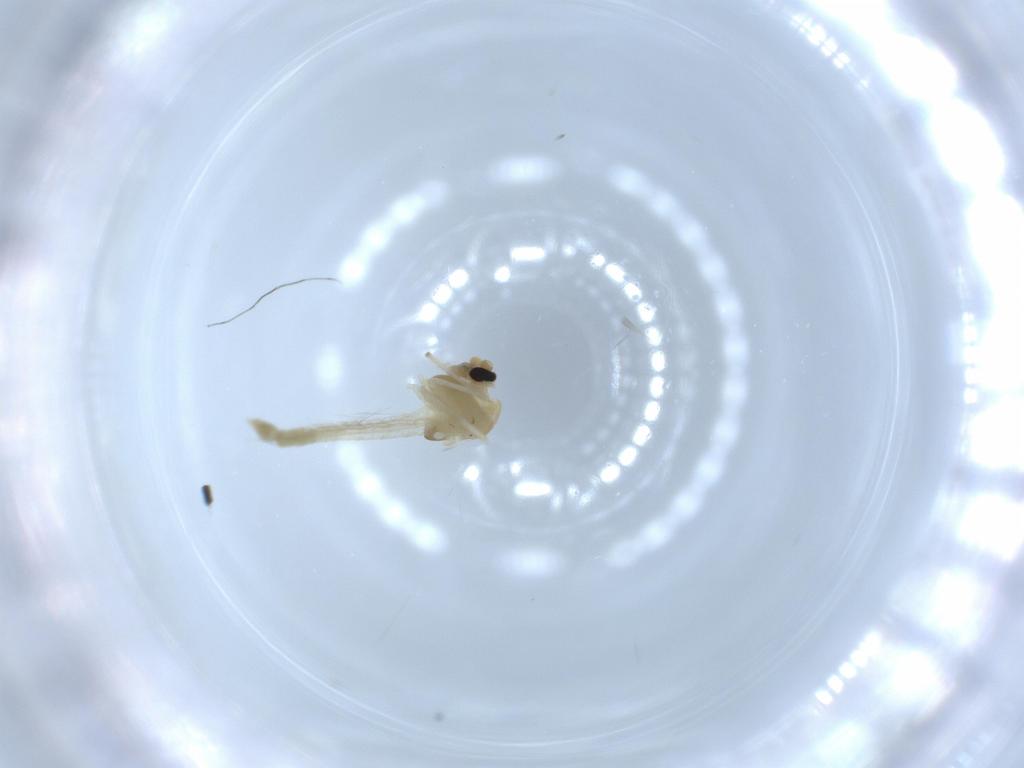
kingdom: Animalia
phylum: Arthropoda
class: Insecta
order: Diptera
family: Chironomidae
